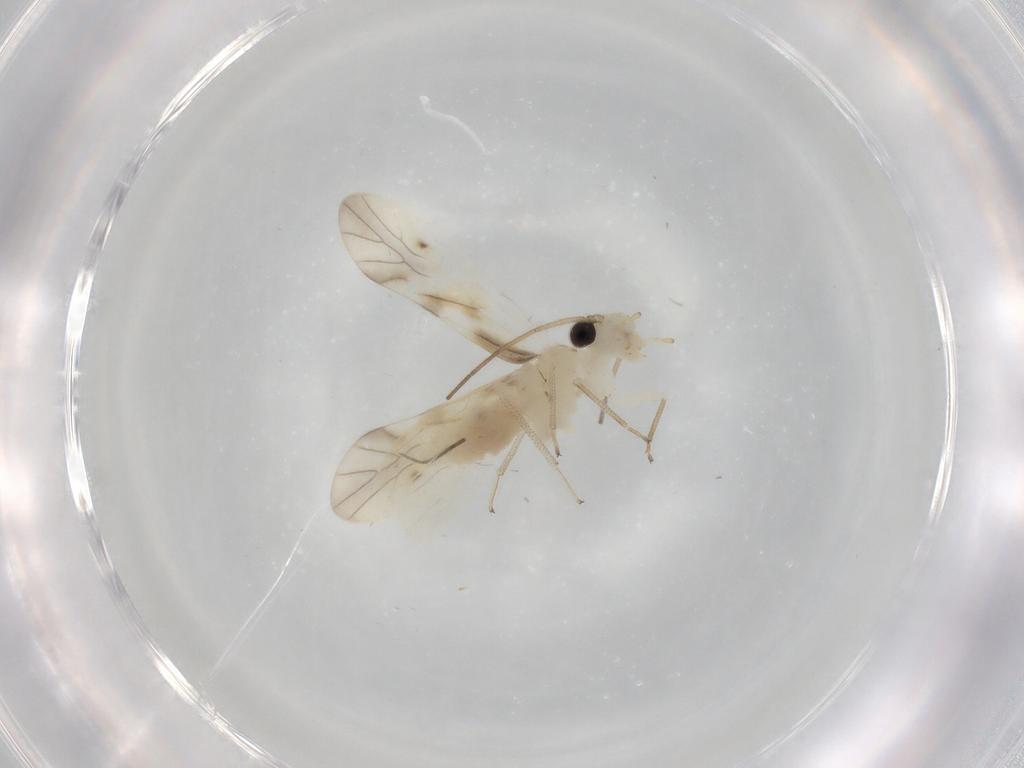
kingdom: Animalia
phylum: Arthropoda
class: Insecta
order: Psocodea
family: Caeciliusidae
